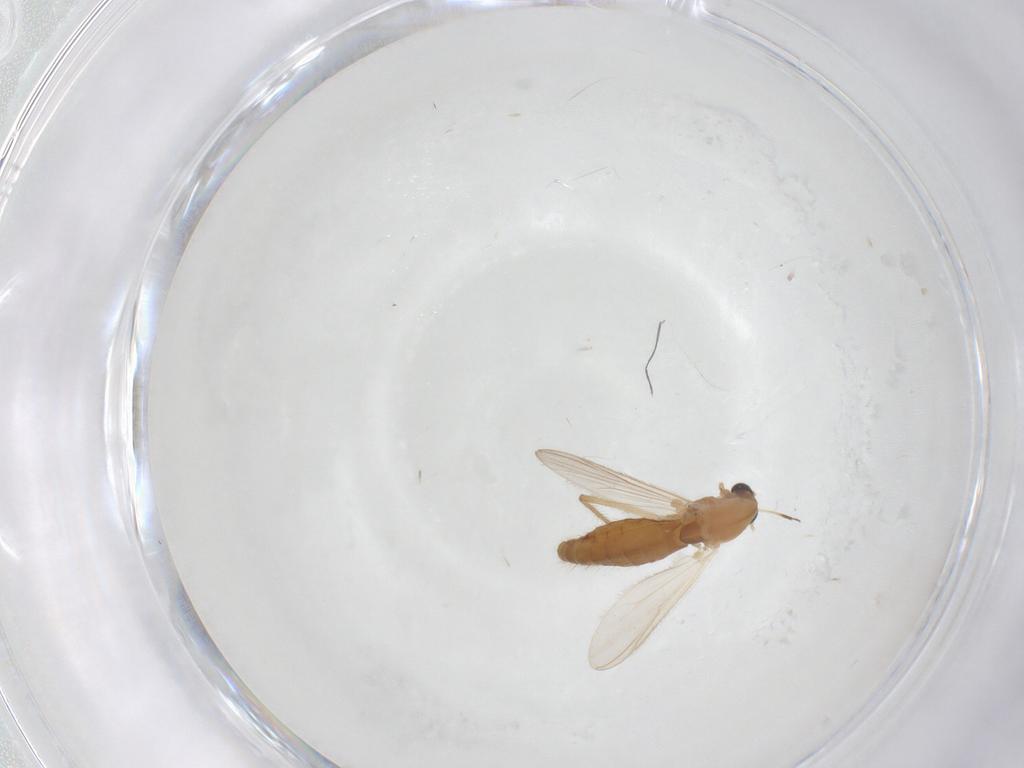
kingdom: Animalia
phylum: Arthropoda
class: Insecta
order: Diptera
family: Chironomidae
